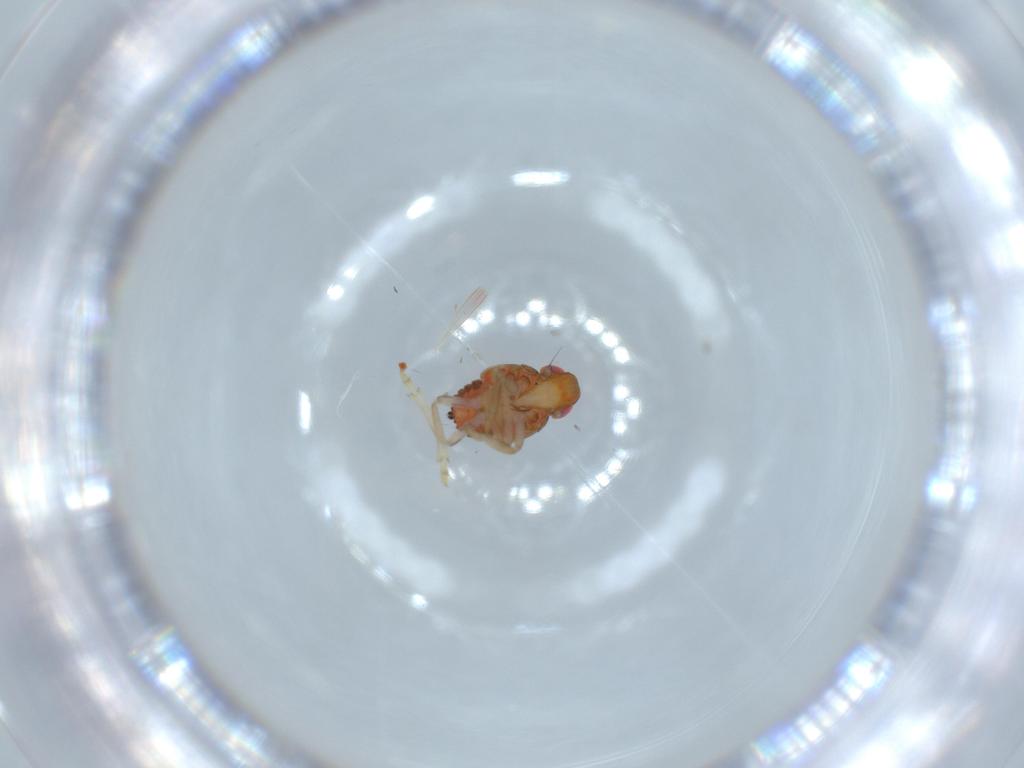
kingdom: Animalia
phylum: Arthropoda
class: Insecta
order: Hemiptera
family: Issidae
